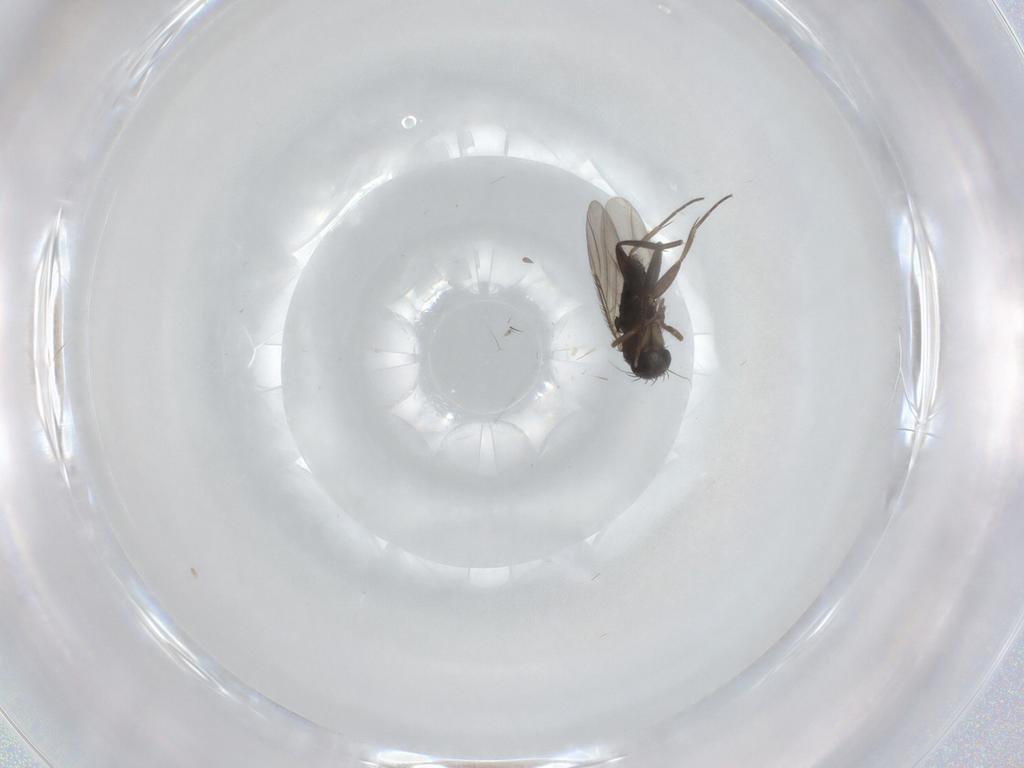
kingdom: Animalia
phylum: Arthropoda
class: Insecta
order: Diptera
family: Phoridae
